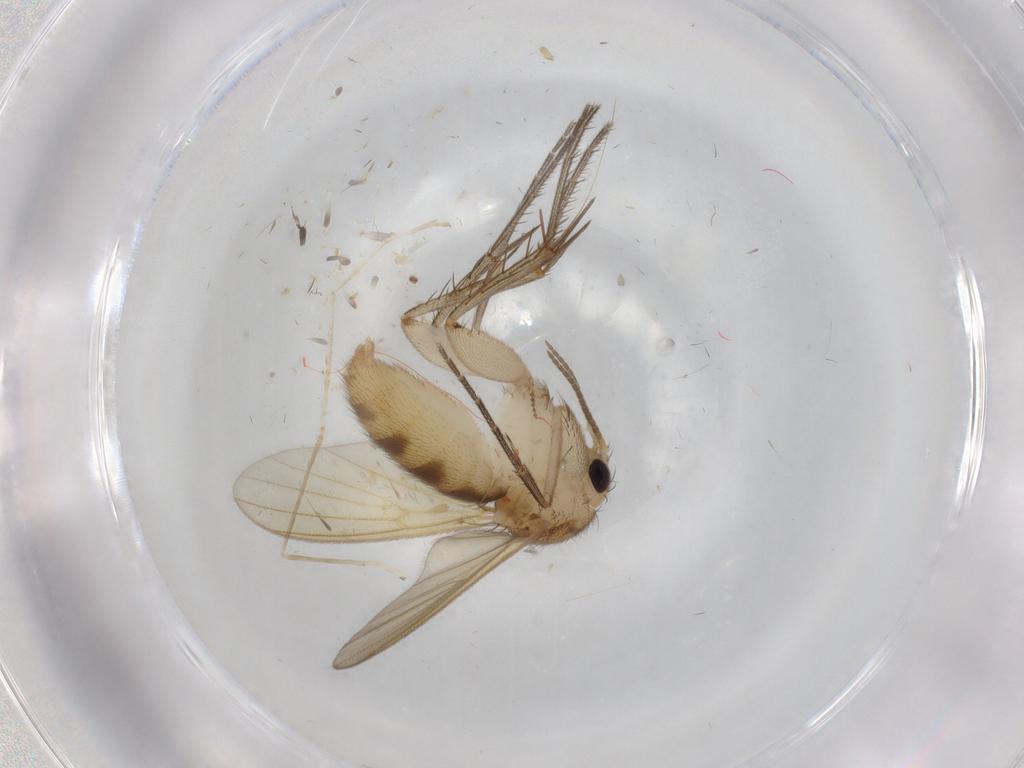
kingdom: Animalia
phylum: Arthropoda
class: Insecta
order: Diptera
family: Mycetophilidae
